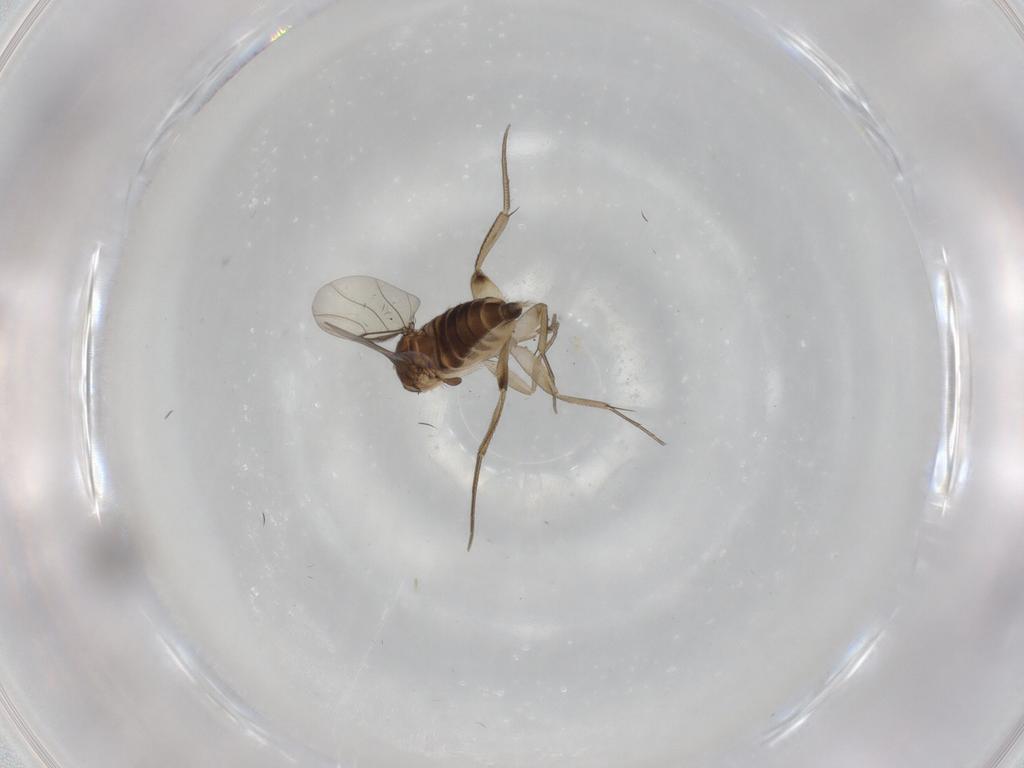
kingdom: Animalia
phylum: Arthropoda
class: Insecta
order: Diptera
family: Phoridae
